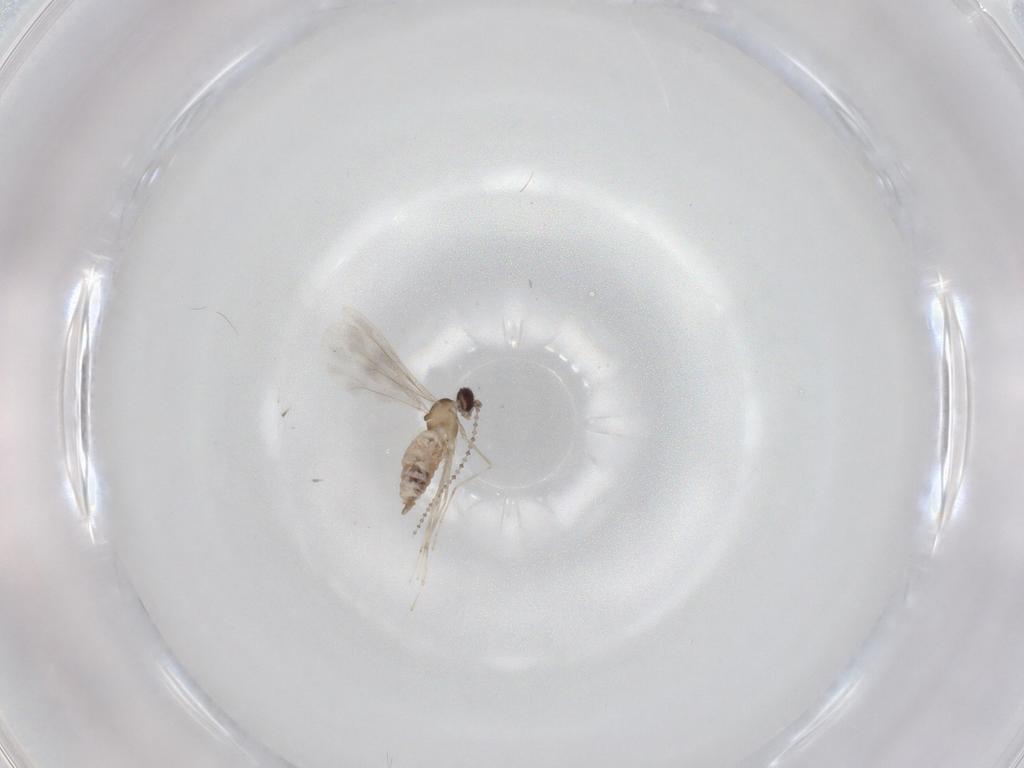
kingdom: Animalia
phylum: Arthropoda
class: Insecta
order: Diptera
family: Cecidomyiidae
